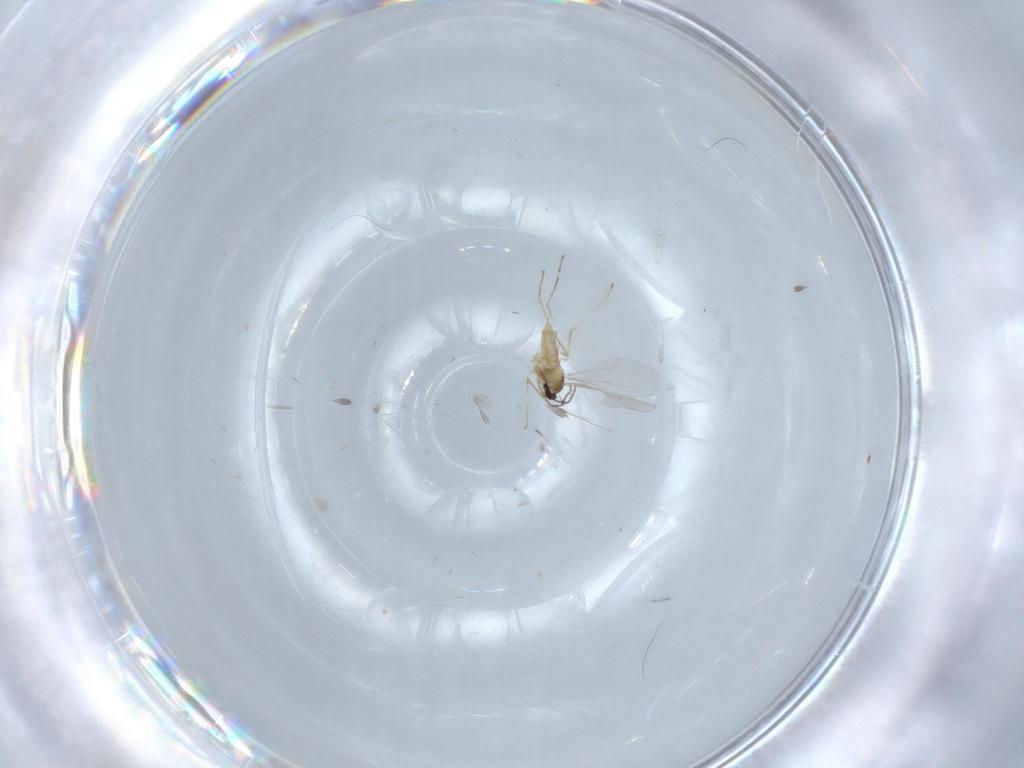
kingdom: Animalia
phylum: Arthropoda
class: Insecta
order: Diptera
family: Cecidomyiidae
